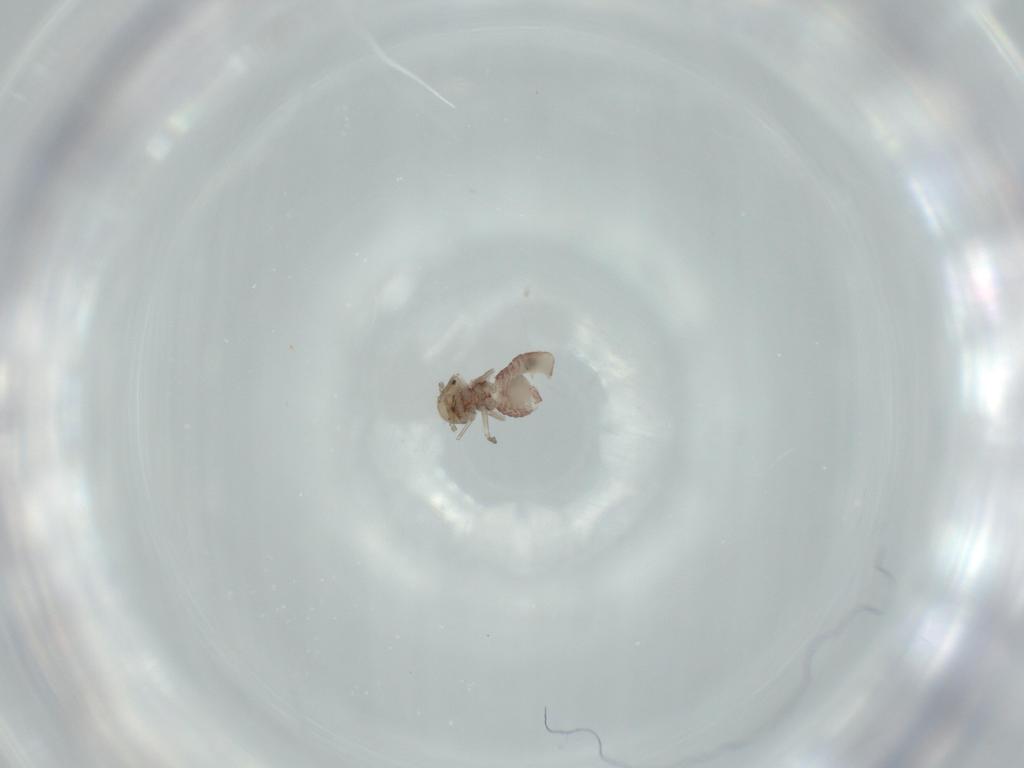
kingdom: Animalia
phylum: Arthropoda
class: Insecta
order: Psocodea
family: Ectopsocidae
